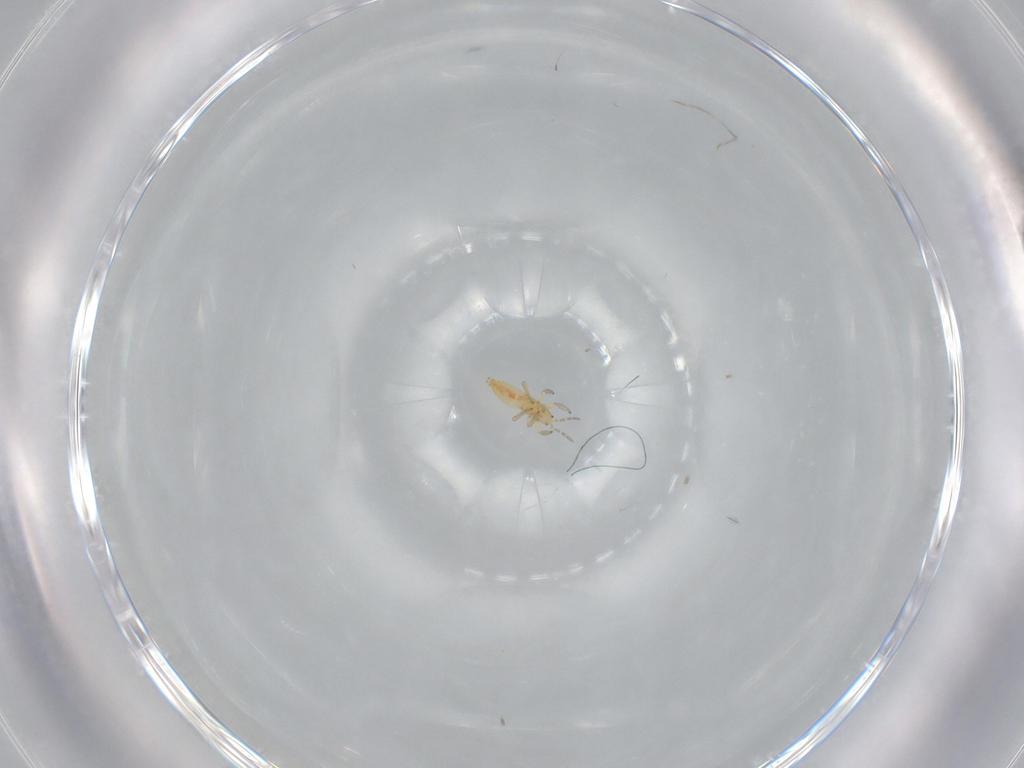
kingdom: Animalia
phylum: Arthropoda
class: Insecta
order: Thysanoptera
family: Aeolothripidae
